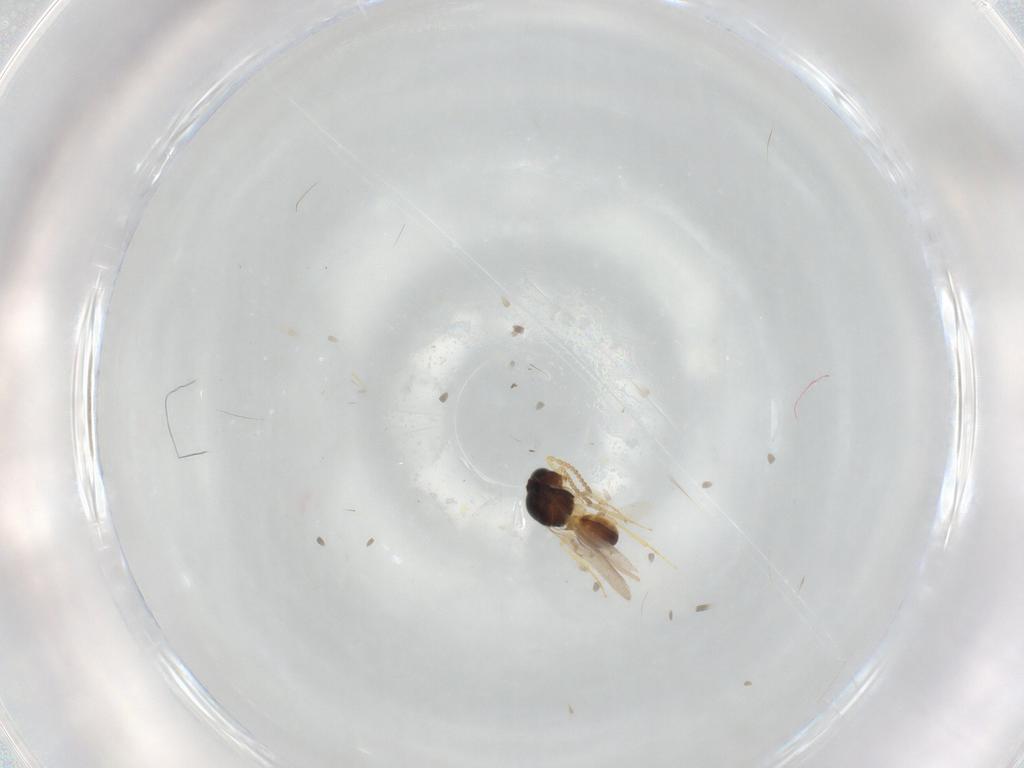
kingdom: Animalia
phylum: Arthropoda
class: Insecta
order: Hymenoptera
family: Scelionidae
